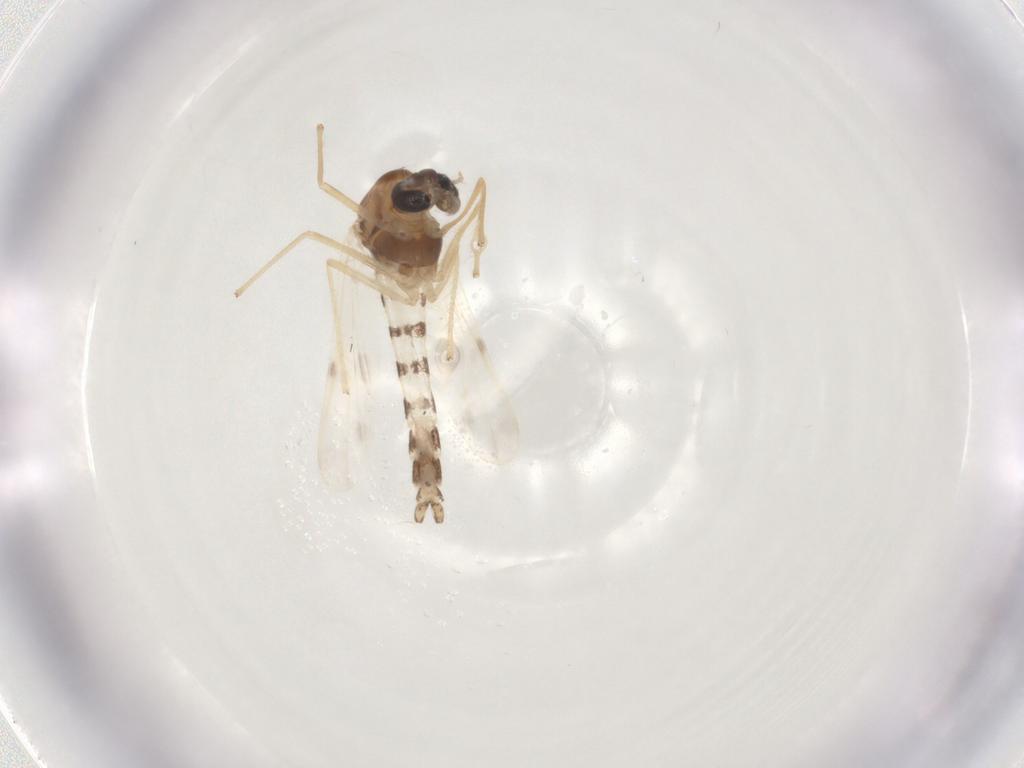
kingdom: Animalia
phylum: Arthropoda
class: Insecta
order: Diptera
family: Chironomidae
